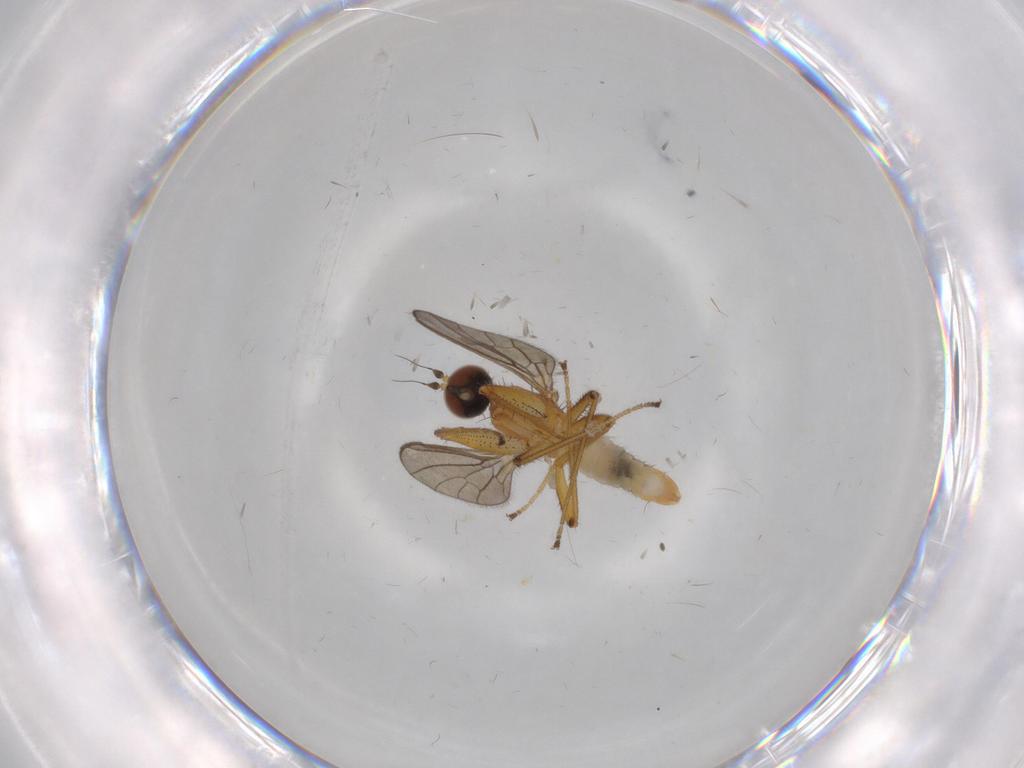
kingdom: Animalia
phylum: Arthropoda
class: Insecta
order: Diptera
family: Empididae
